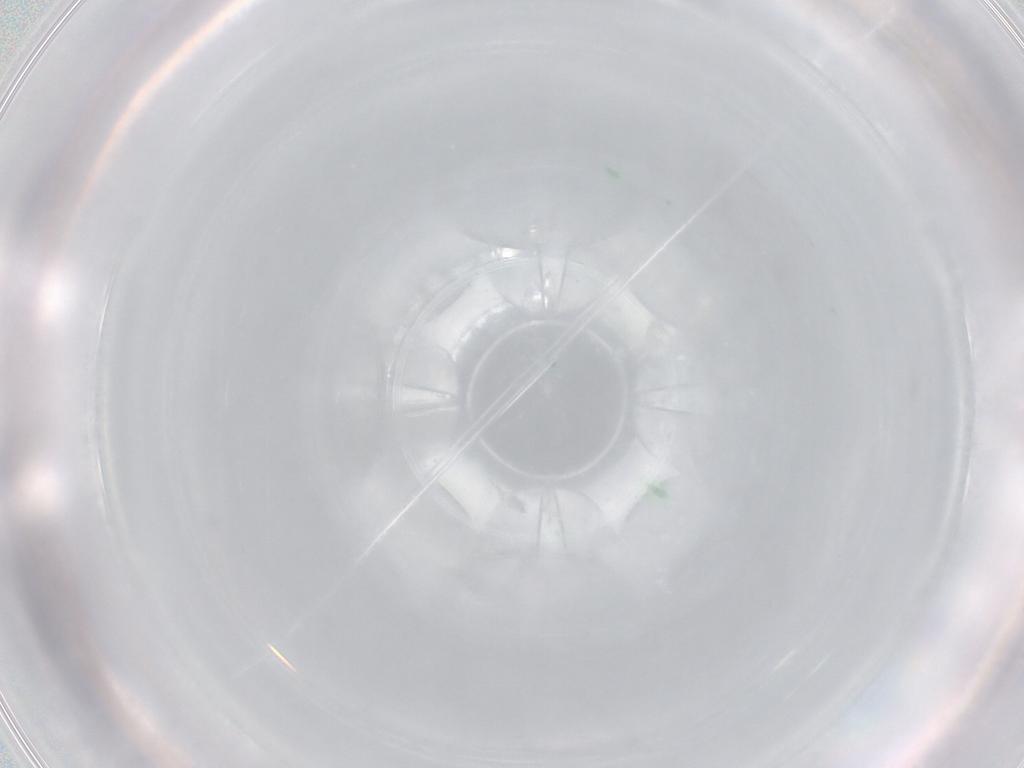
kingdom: Animalia
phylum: Arthropoda
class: Collembola
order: Entomobryomorpha
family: Entomobryidae
